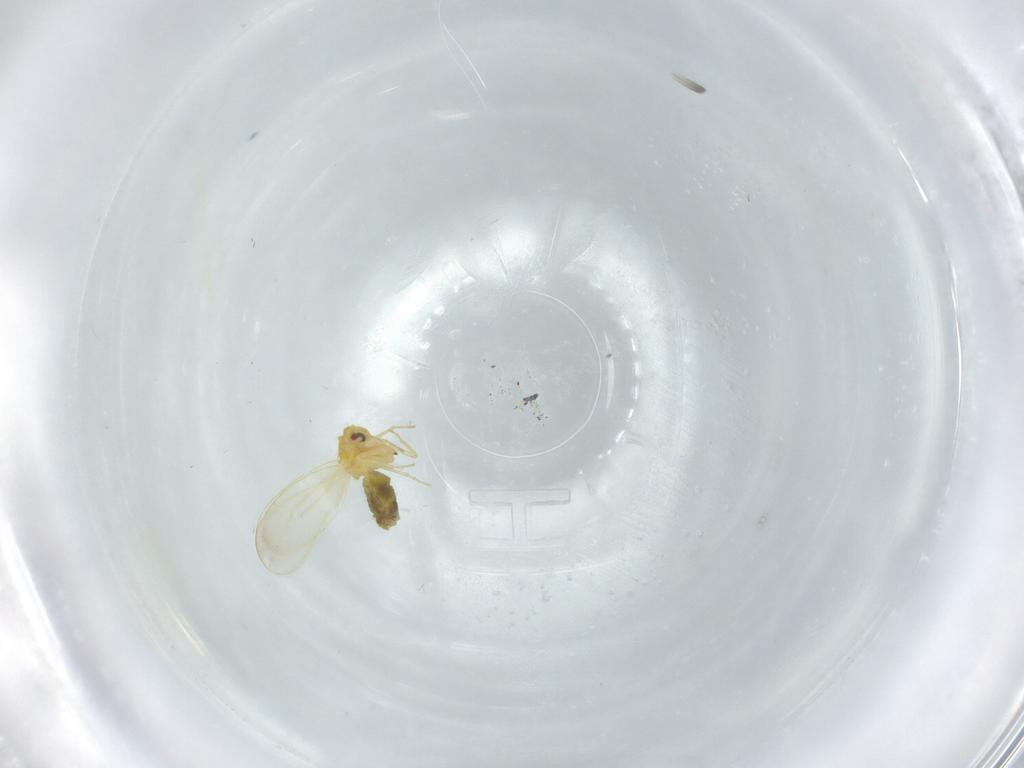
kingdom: Animalia
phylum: Arthropoda
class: Insecta
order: Hemiptera
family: Aleyrodidae
